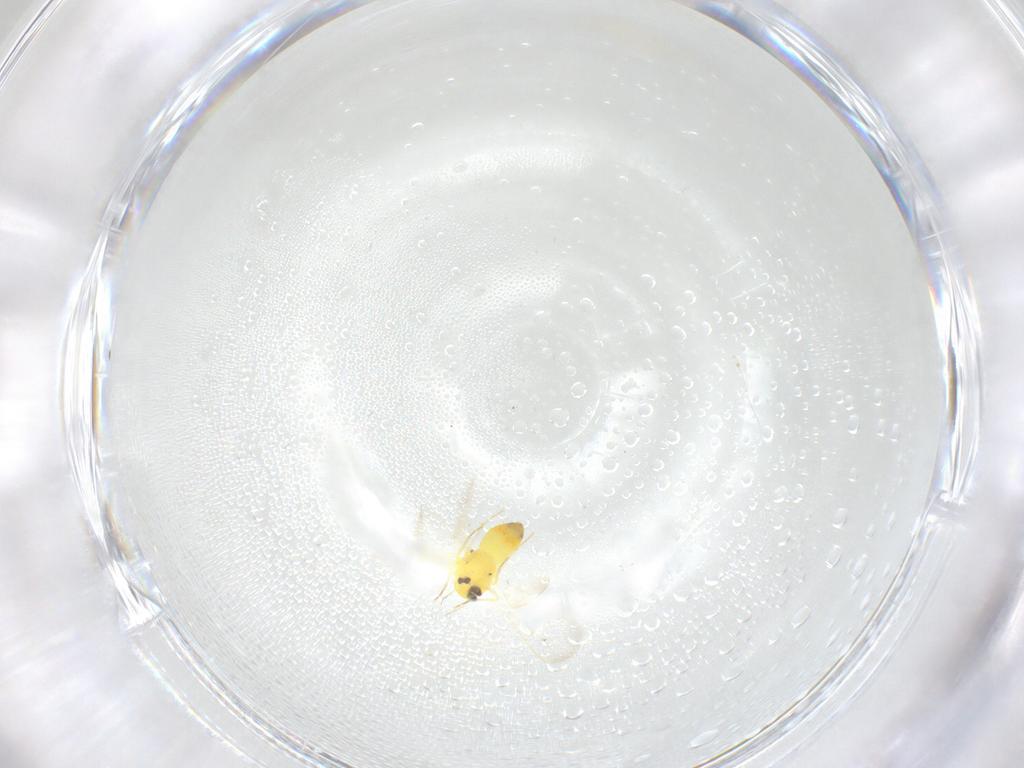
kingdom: Animalia
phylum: Arthropoda
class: Insecta
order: Hemiptera
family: Aleyrodidae
